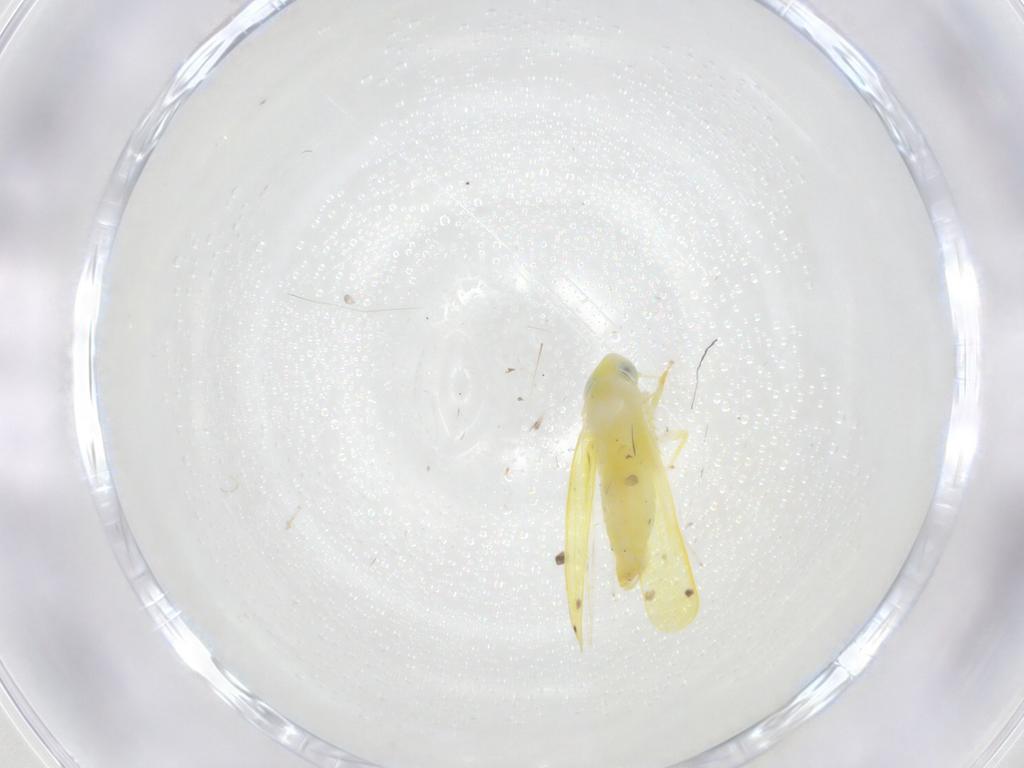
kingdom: Animalia
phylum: Arthropoda
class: Insecta
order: Hemiptera
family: Cicadellidae
